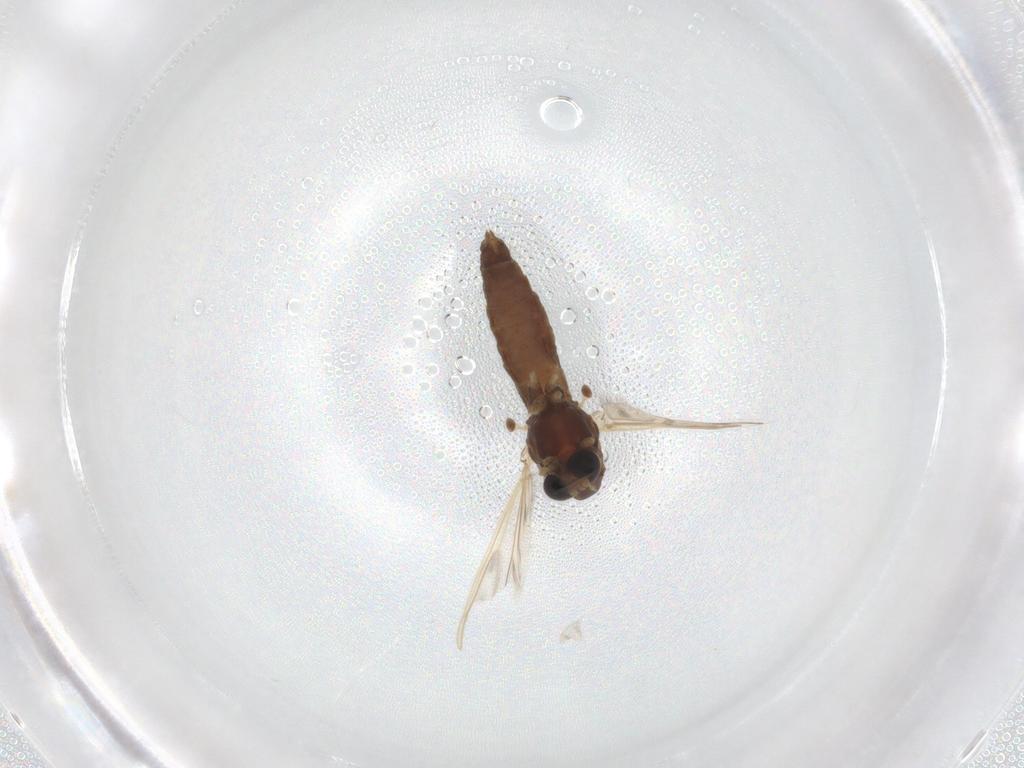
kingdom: Animalia
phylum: Arthropoda
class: Insecta
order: Diptera
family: Chironomidae
